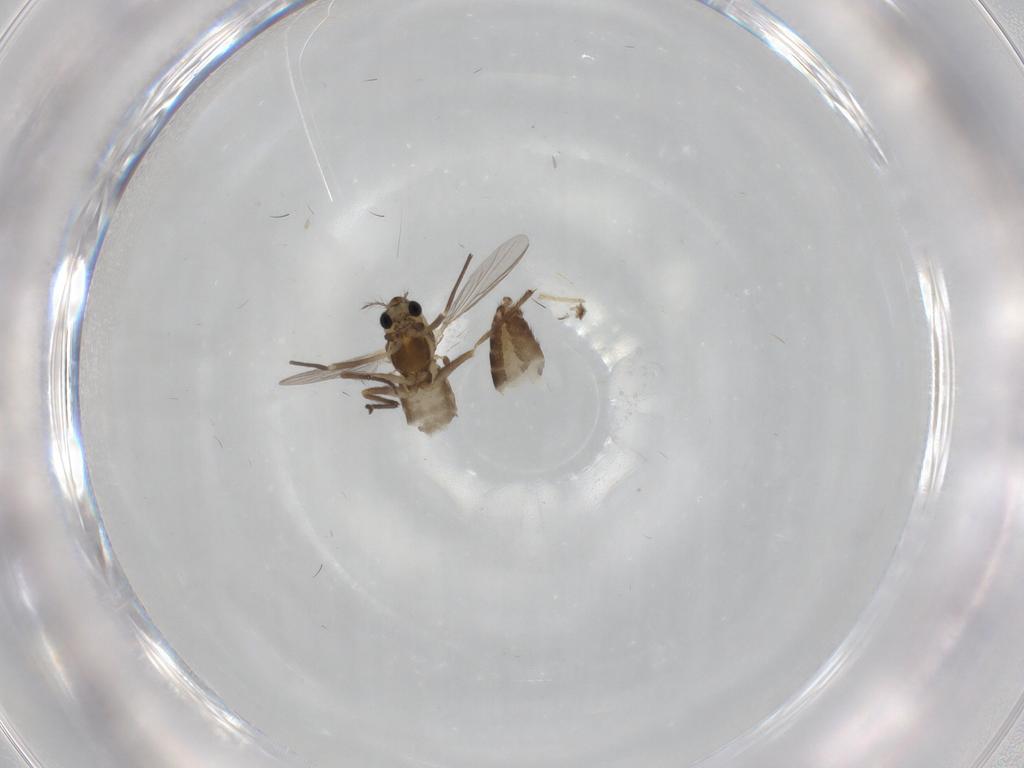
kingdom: Animalia
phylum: Arthropoda
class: Insecta
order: Diptera
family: Chironomidae
